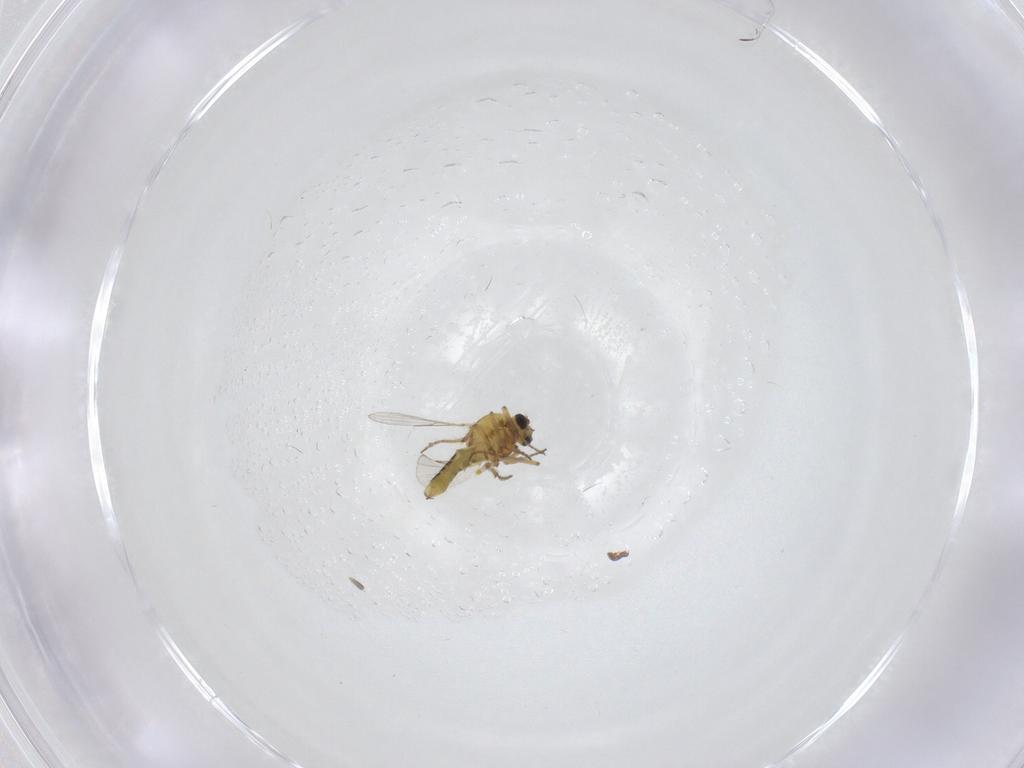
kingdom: Animalia
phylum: Arthropoda
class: Insecta
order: Diptera
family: Ceratopogonidae
